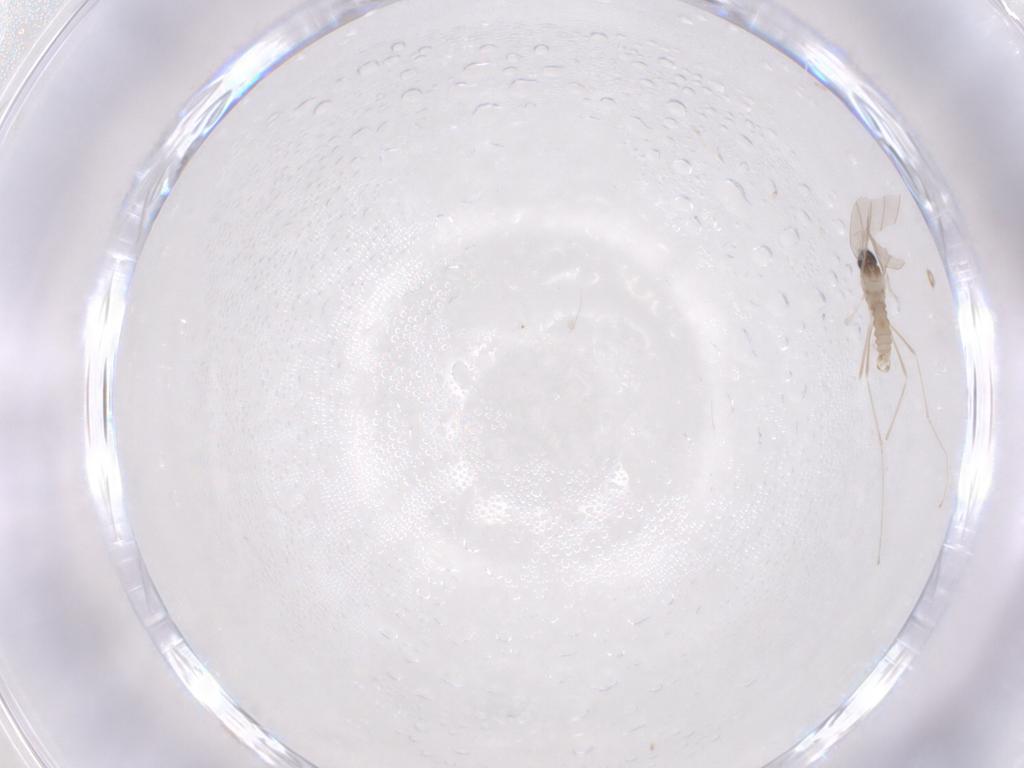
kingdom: Animalia
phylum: Arthropoda
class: Insecta
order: Diptera
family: Cecidomyiidae
